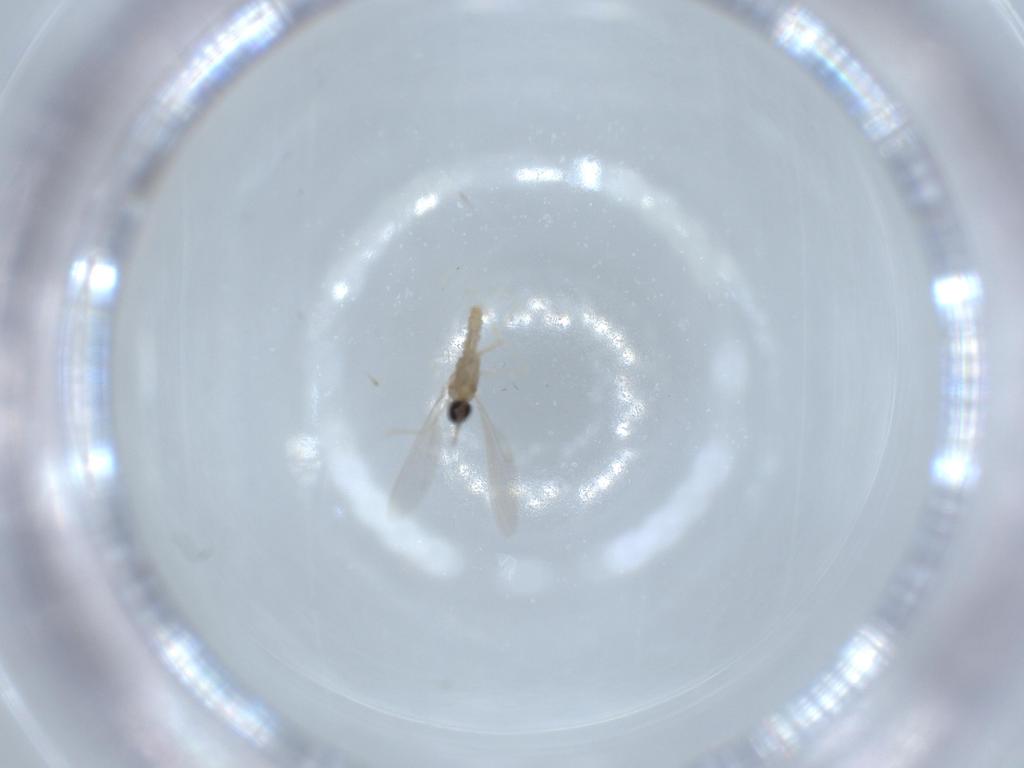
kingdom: Animalia
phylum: Arthropoda
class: Insecta
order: Diptera
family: Cecidomyiidae
